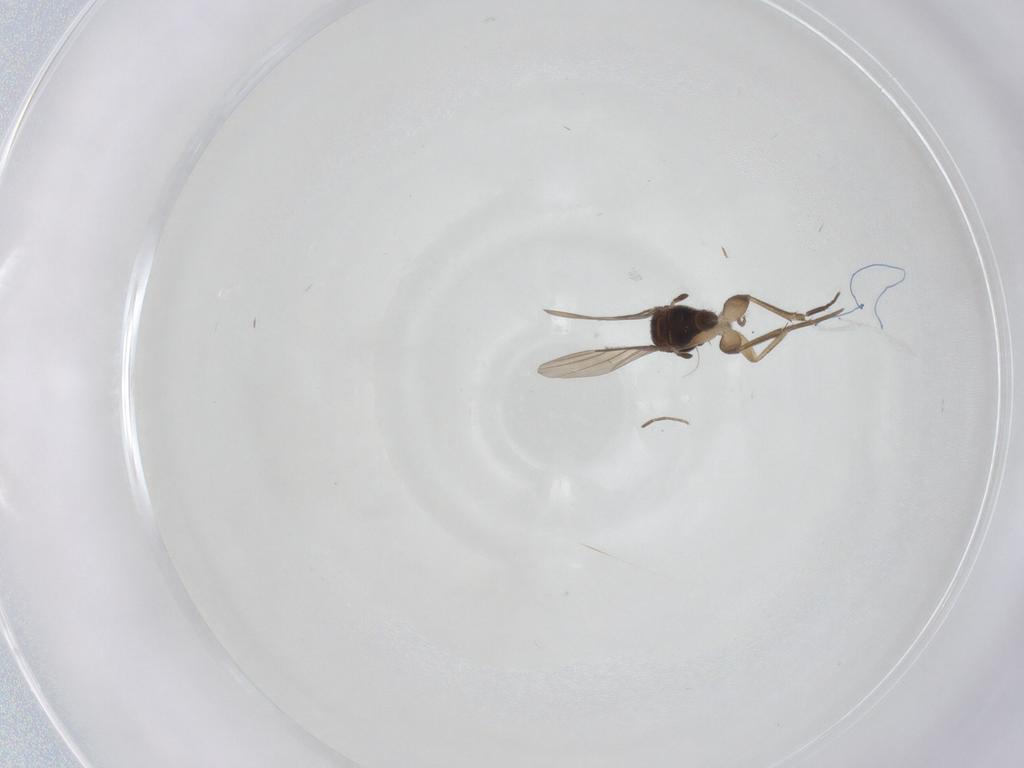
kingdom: Animalia
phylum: Arthropoda
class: Insecta
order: Diptera
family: Phoridae
